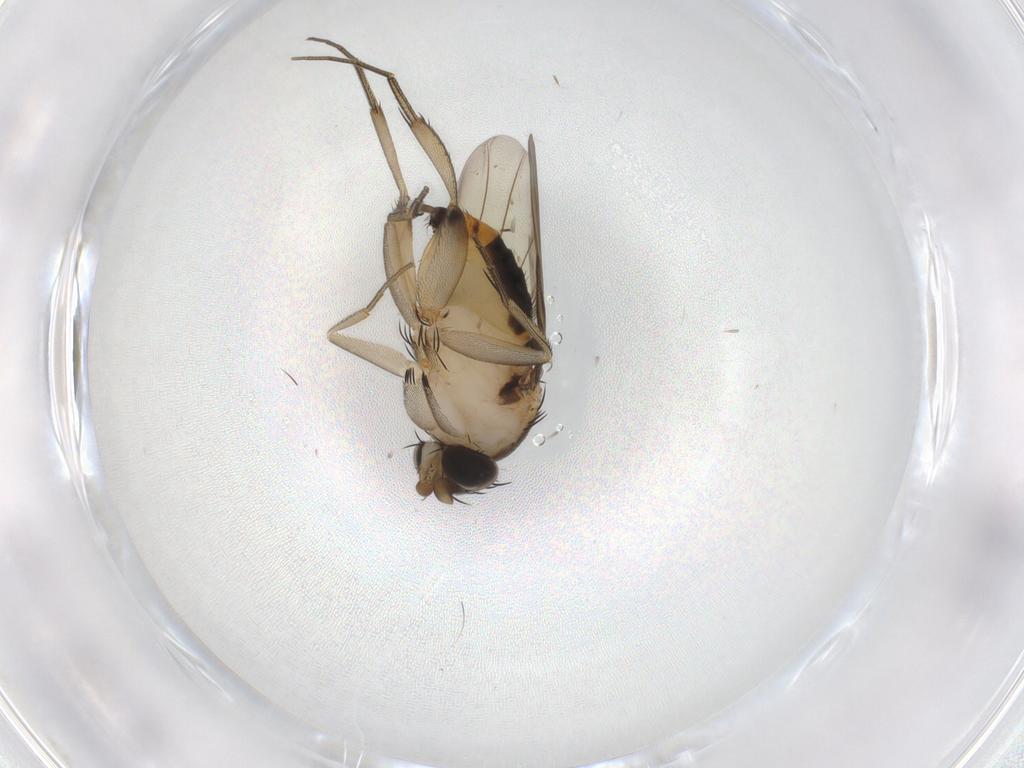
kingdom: Animalia
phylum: Arthropoda
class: Insecta
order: Diptera
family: Phoridae
